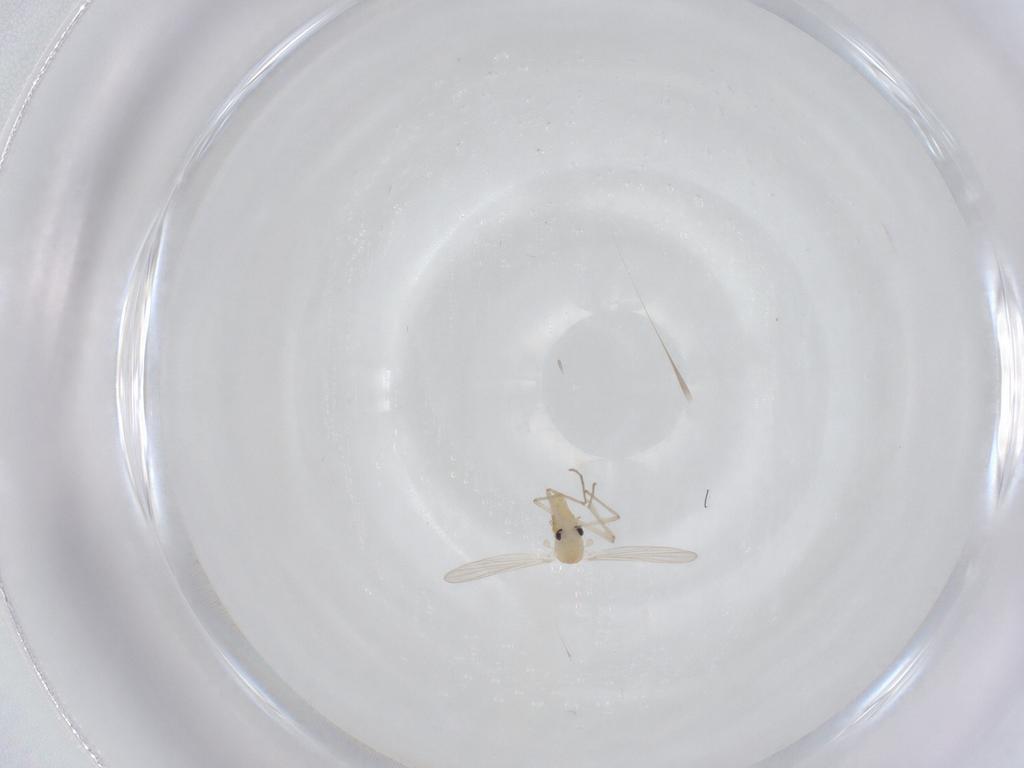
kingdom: Animalia
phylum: Arthropoda
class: Insecta
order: Diptera
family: Chironomidae
